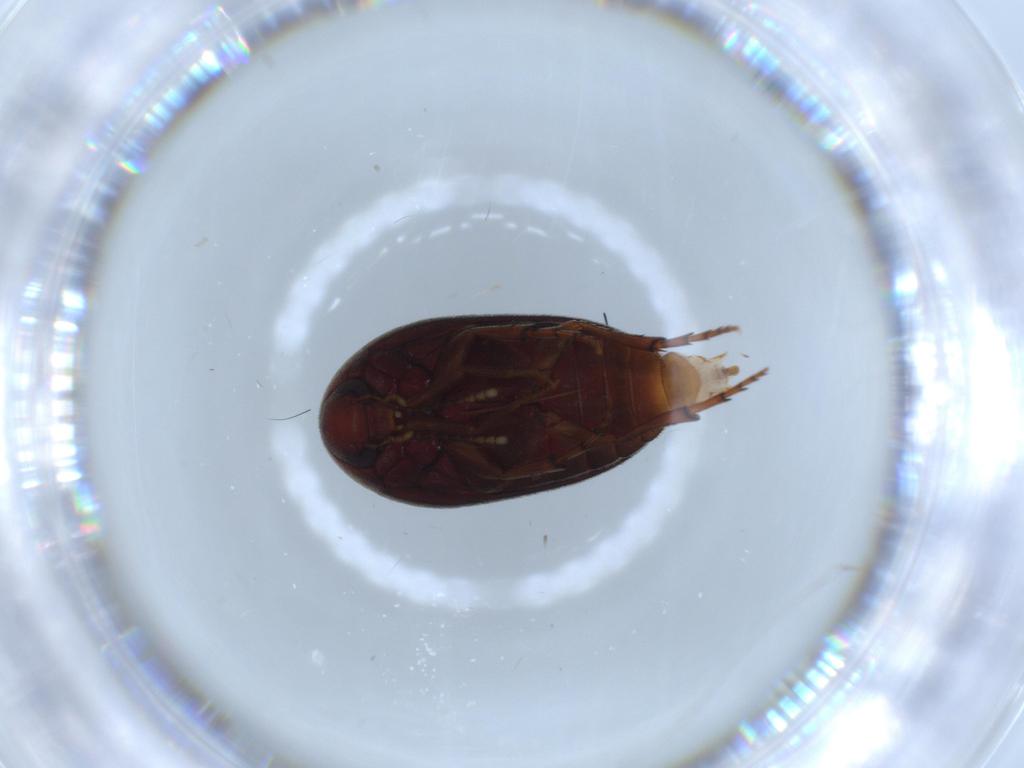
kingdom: Animalia
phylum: Arthropoda
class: Insecta
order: Coleoptera
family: Eucinetidae
